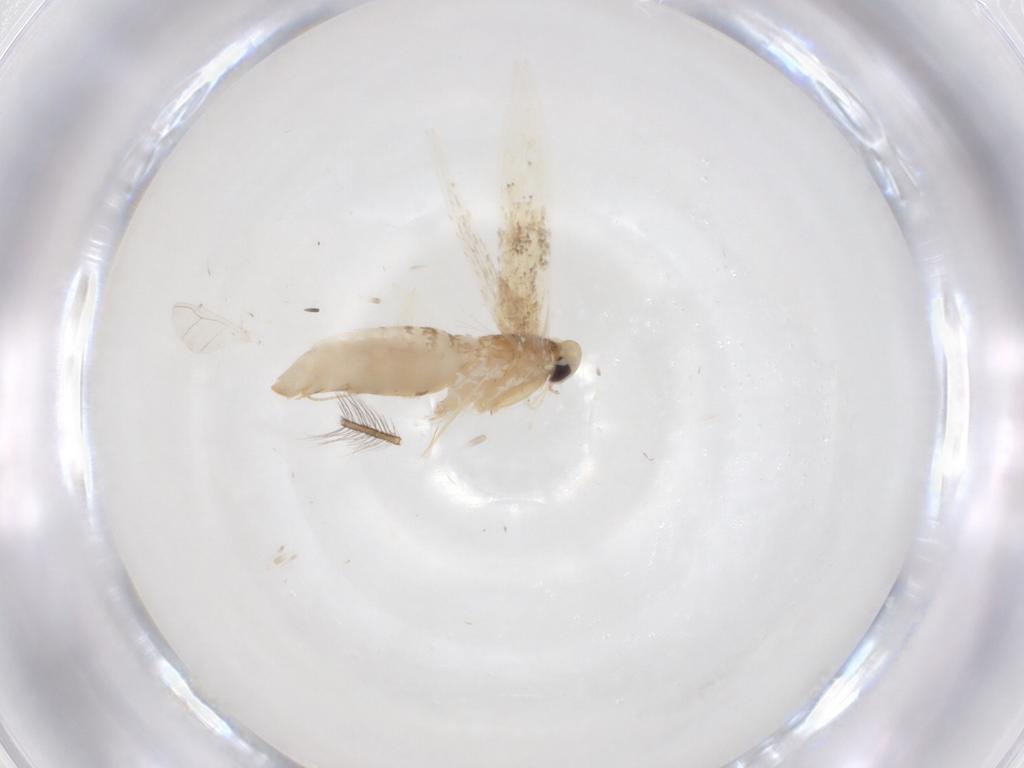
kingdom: Animalia
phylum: Arthropoda
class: Insecta
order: Lepidoptera
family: Gracillariidae
